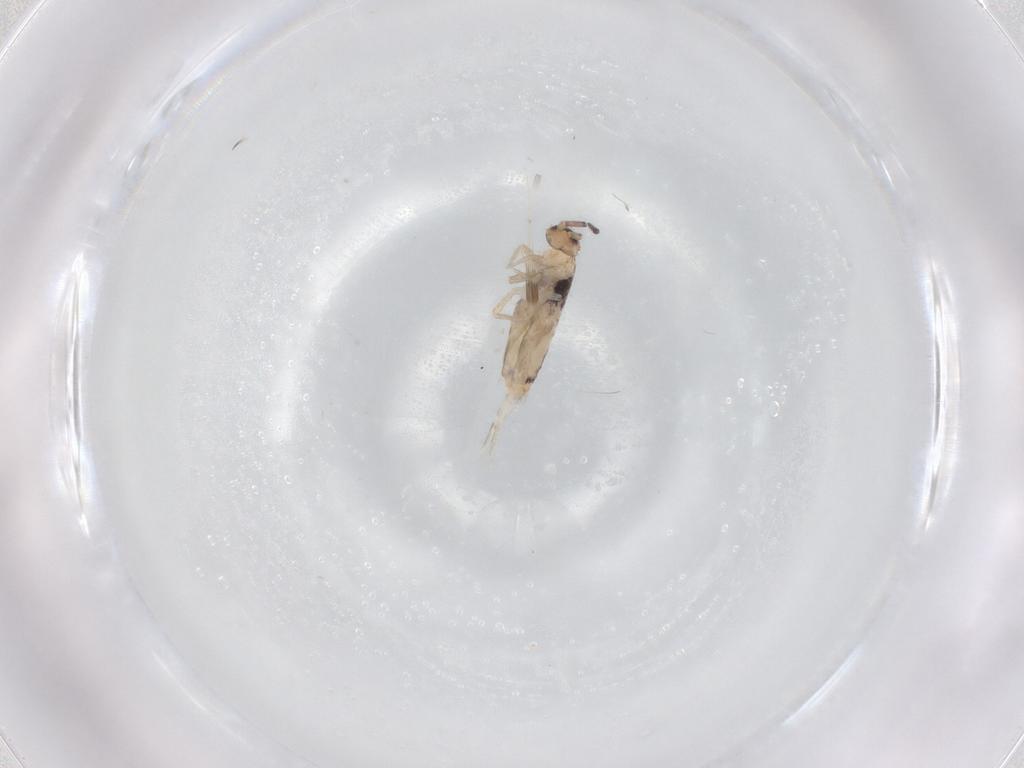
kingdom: Animalia
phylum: Arthropoda
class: Collembola
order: Entomobryomorpha
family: Entomobryidae
